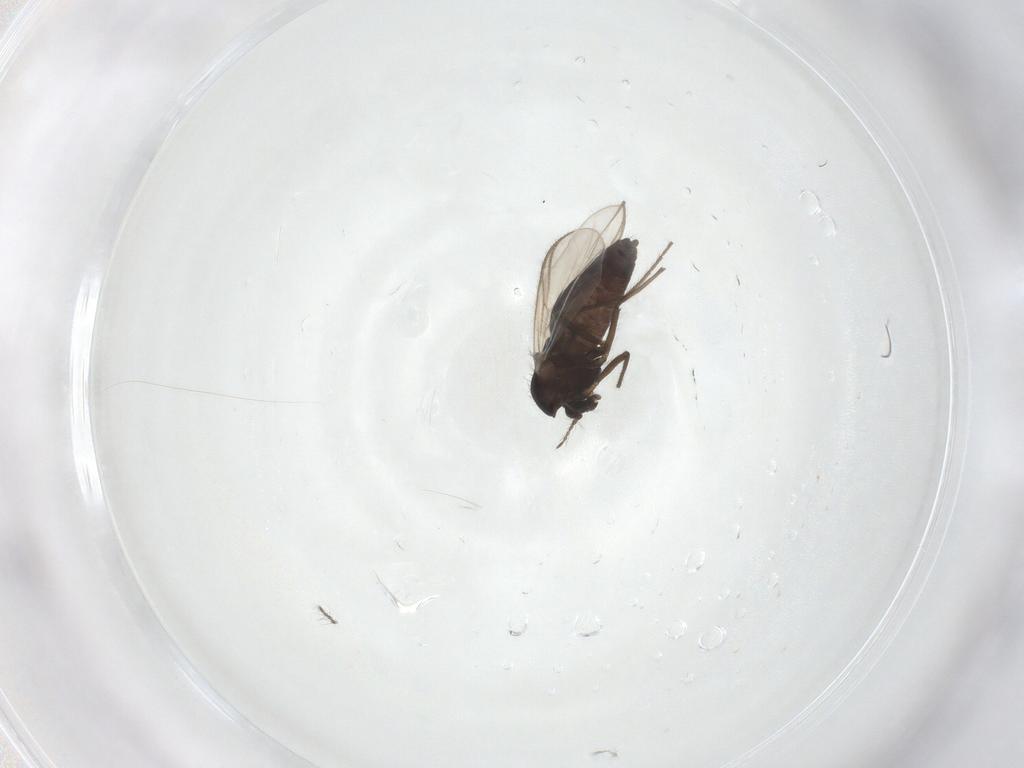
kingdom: Animalia
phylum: Arthropoda
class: Insecta
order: Diptera
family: Chironomidae
